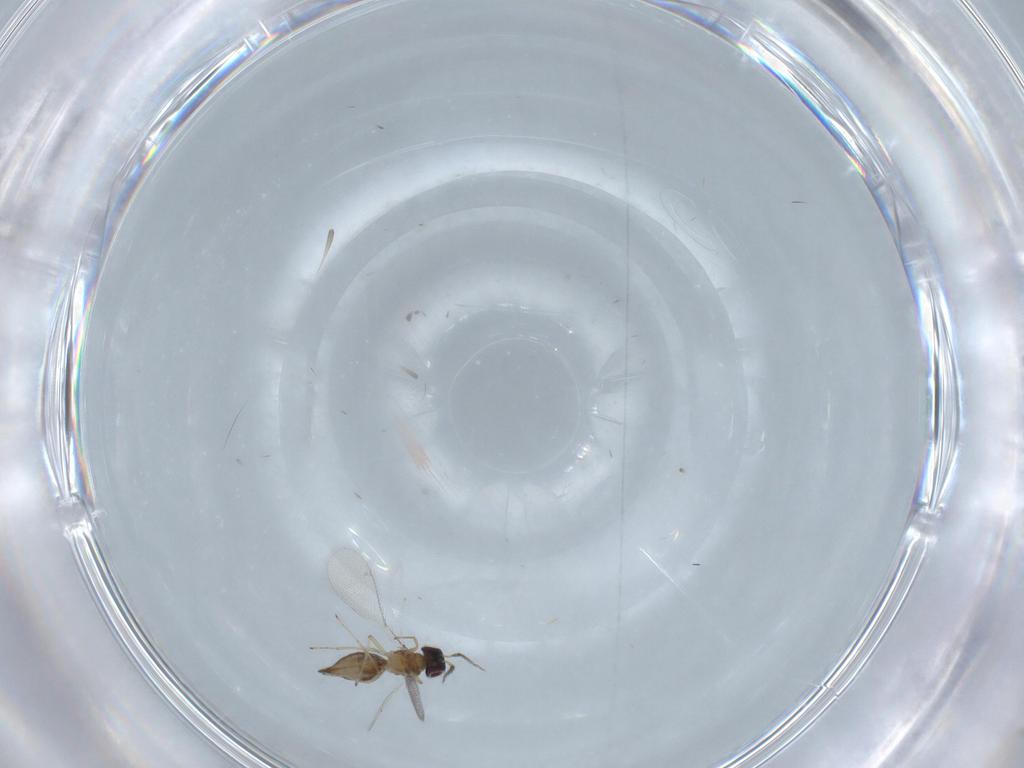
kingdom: Animalia
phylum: Arthropoda
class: Insecta
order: Hymenoptera
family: Eulophidae
